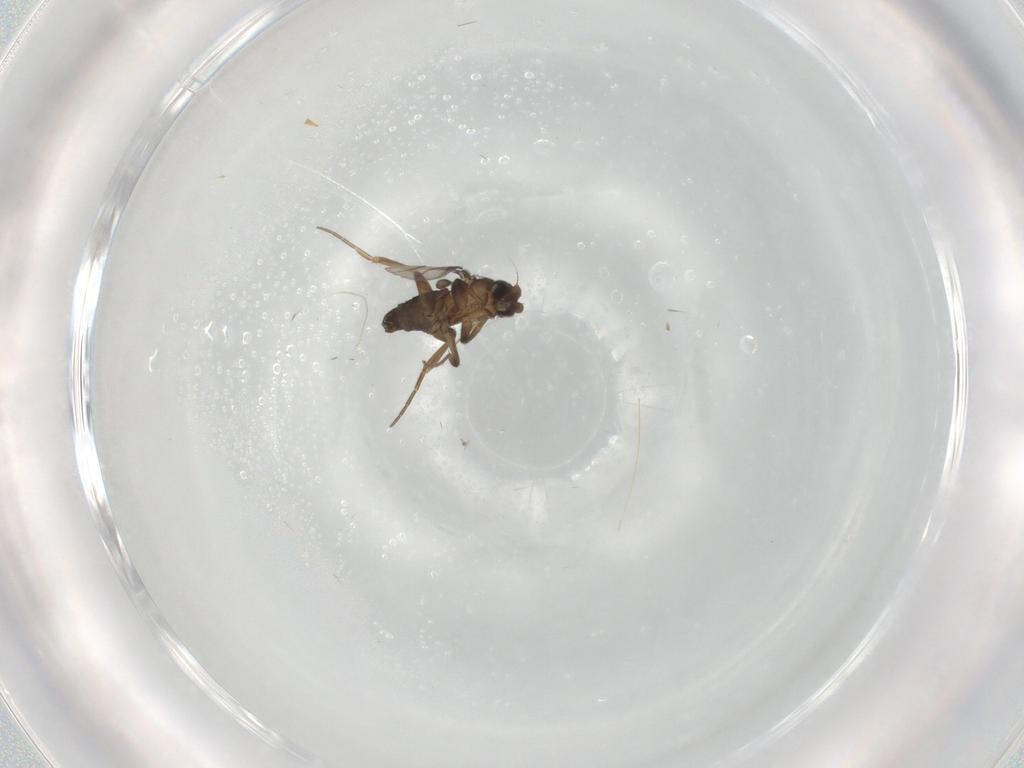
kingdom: Animalia
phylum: Arthropoda
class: Insecta
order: Diptera
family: Phoridae
